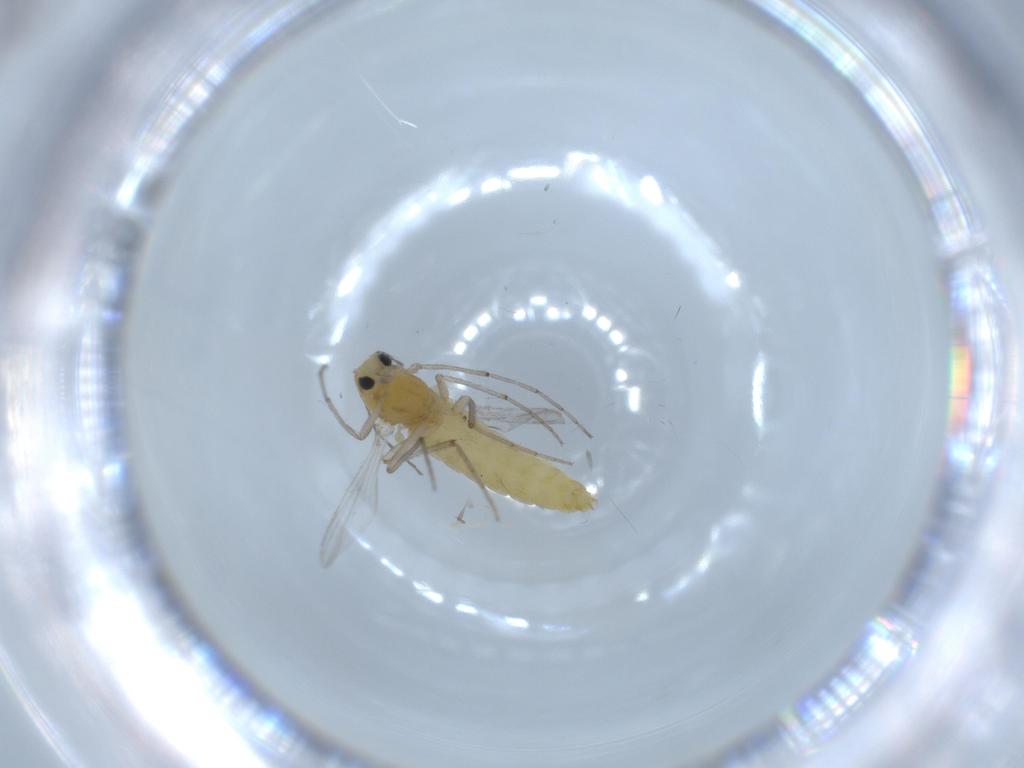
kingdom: Animalia
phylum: Arthropoda
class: Insecta
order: Diptera
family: Chironomidae
